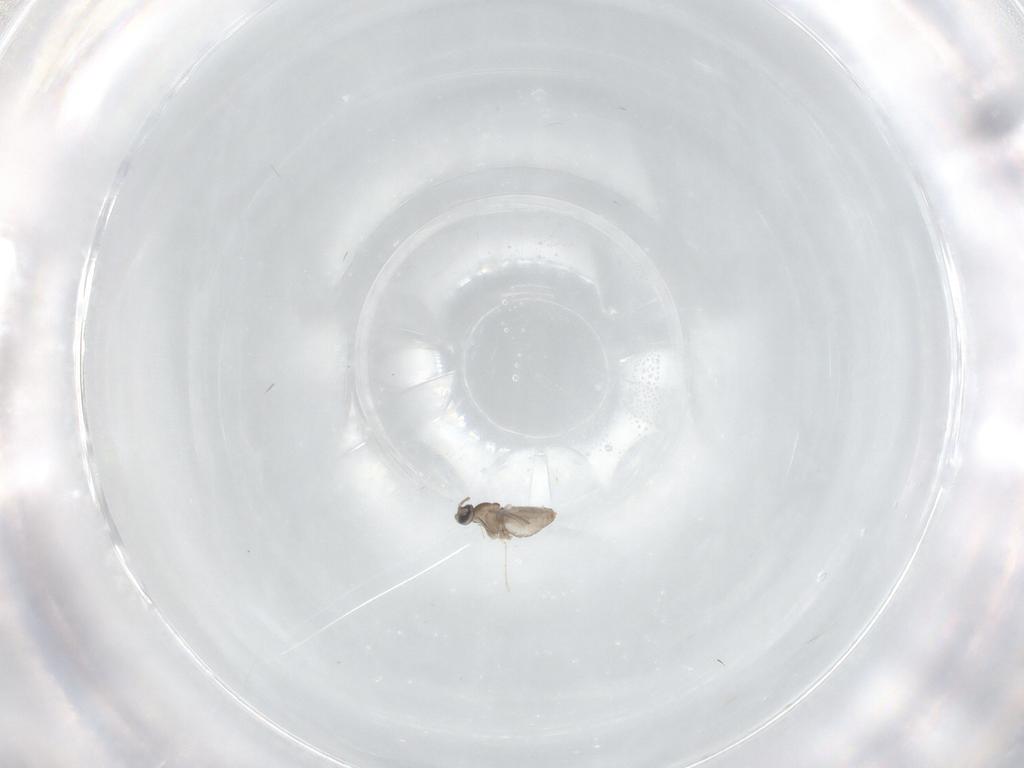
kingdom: Animalia
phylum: Arthropoda
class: Insecta
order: Diptera
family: Cecidomyiidae
